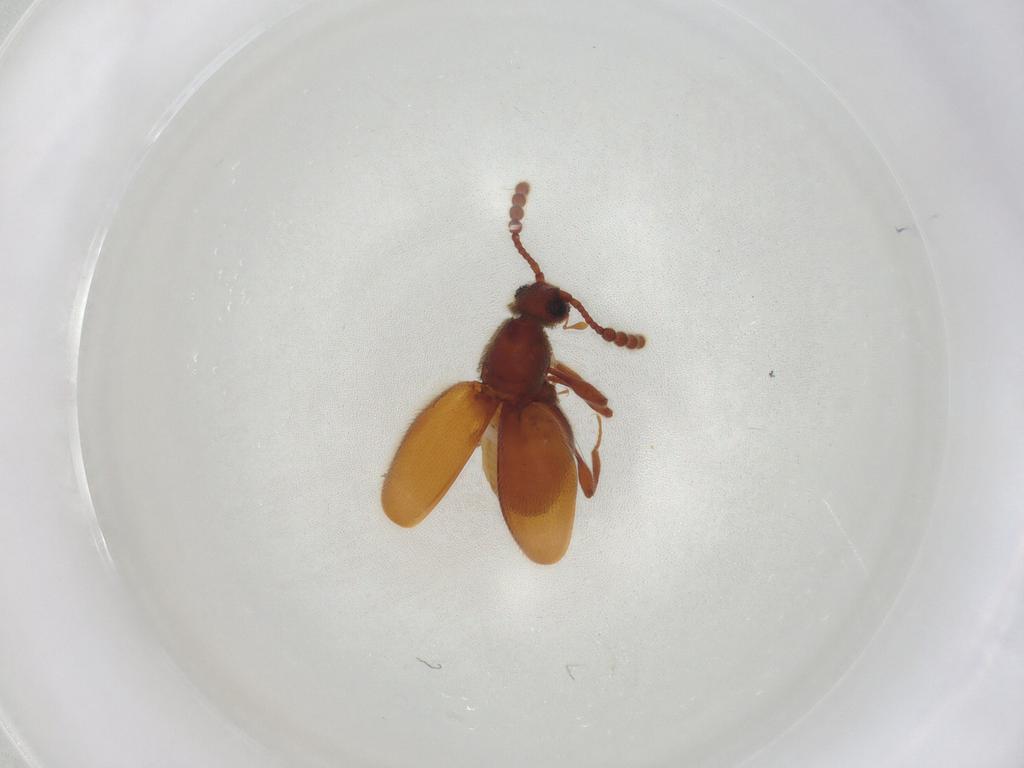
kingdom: Animalia
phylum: Arthropoda
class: Insecta
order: Coleoptera
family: Staphylinidae
